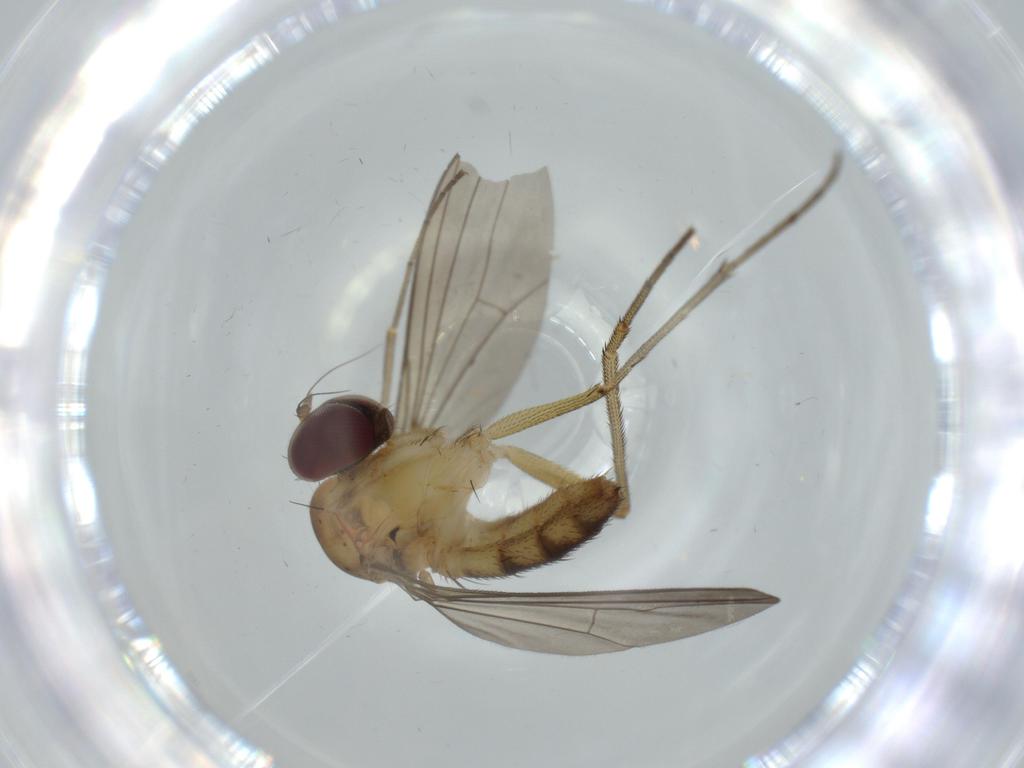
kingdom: Animalia
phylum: Arthropoda
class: Insecta
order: Diptera
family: Dolichopodidae
